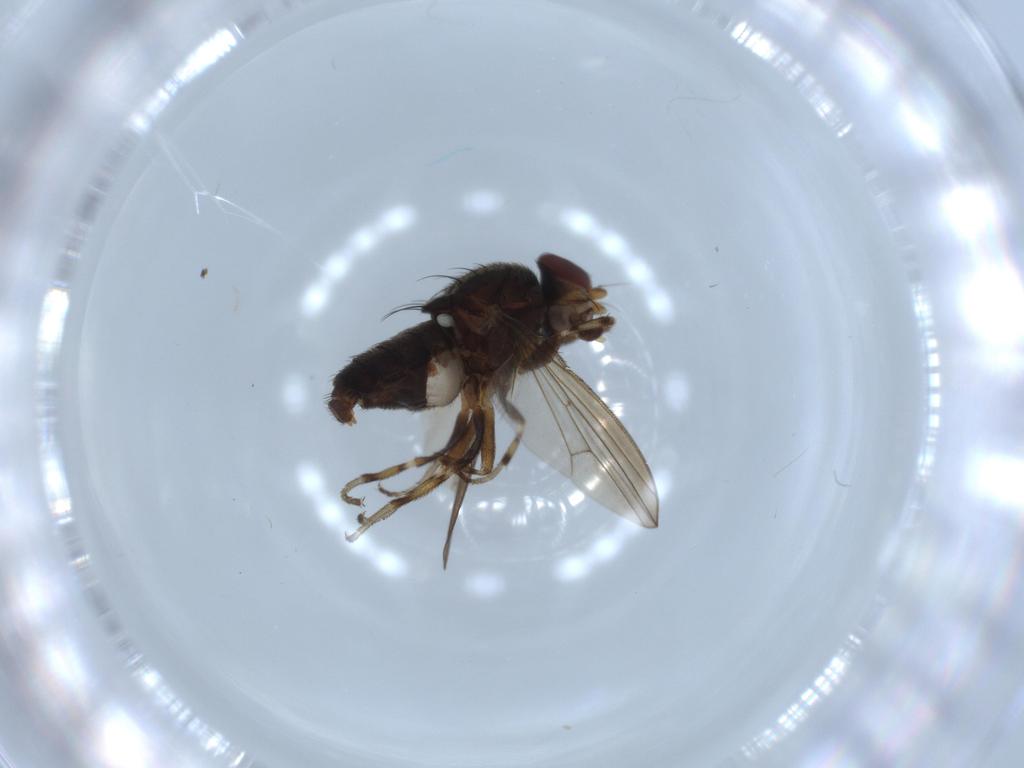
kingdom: Animalia
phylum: Arthropoda
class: Insecta
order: Diptera
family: Heleomyzidae
